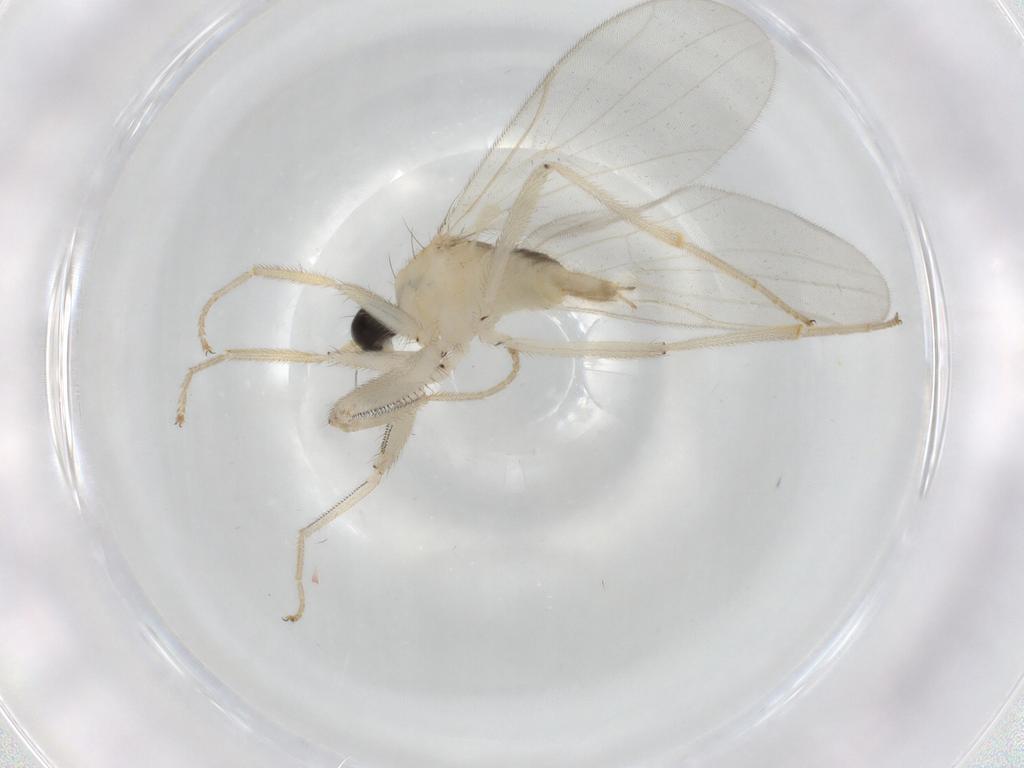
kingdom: Animalia
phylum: Arthropoda
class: Insecta
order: Diptera
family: Hybotidae
